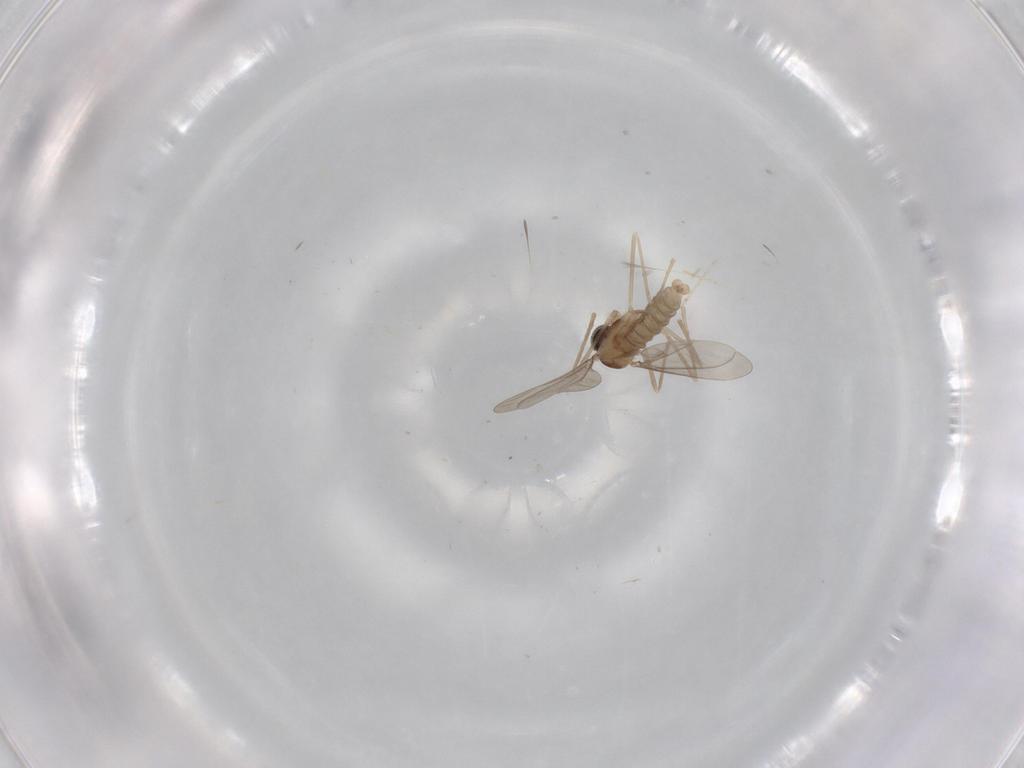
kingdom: Animalia
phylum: Arthropoda
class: Insecta
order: Diptera
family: Cecidomyiidae
